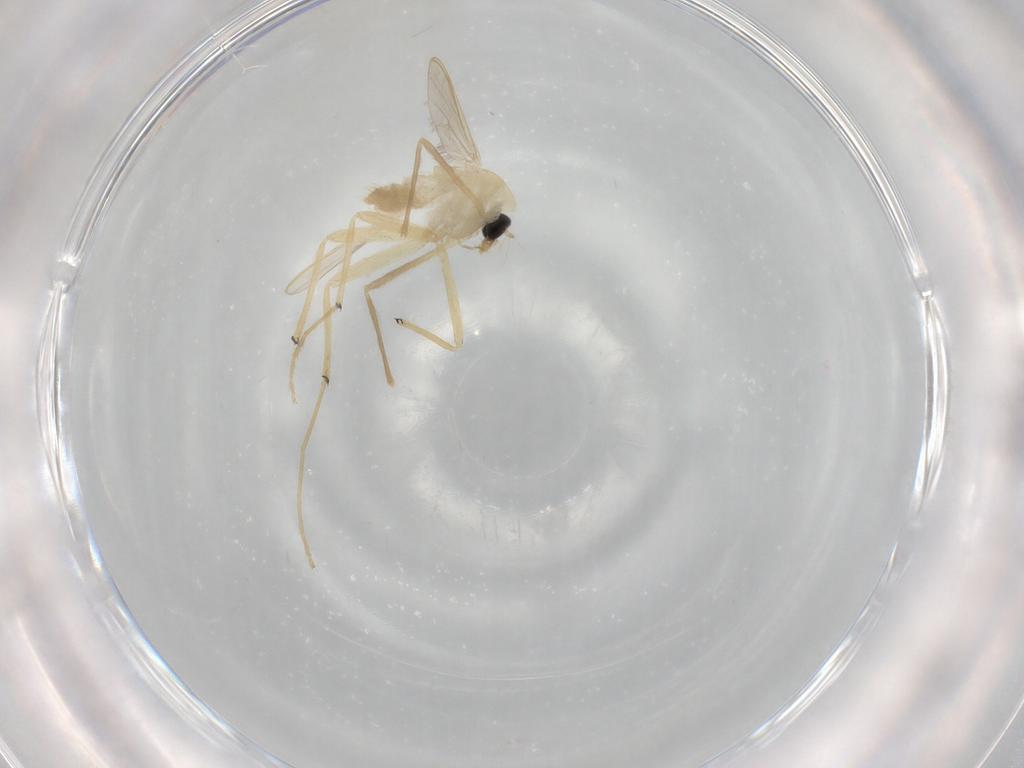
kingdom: Animalia
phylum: Arthropoda
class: Insecta
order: Diptera
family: Chironomidae
